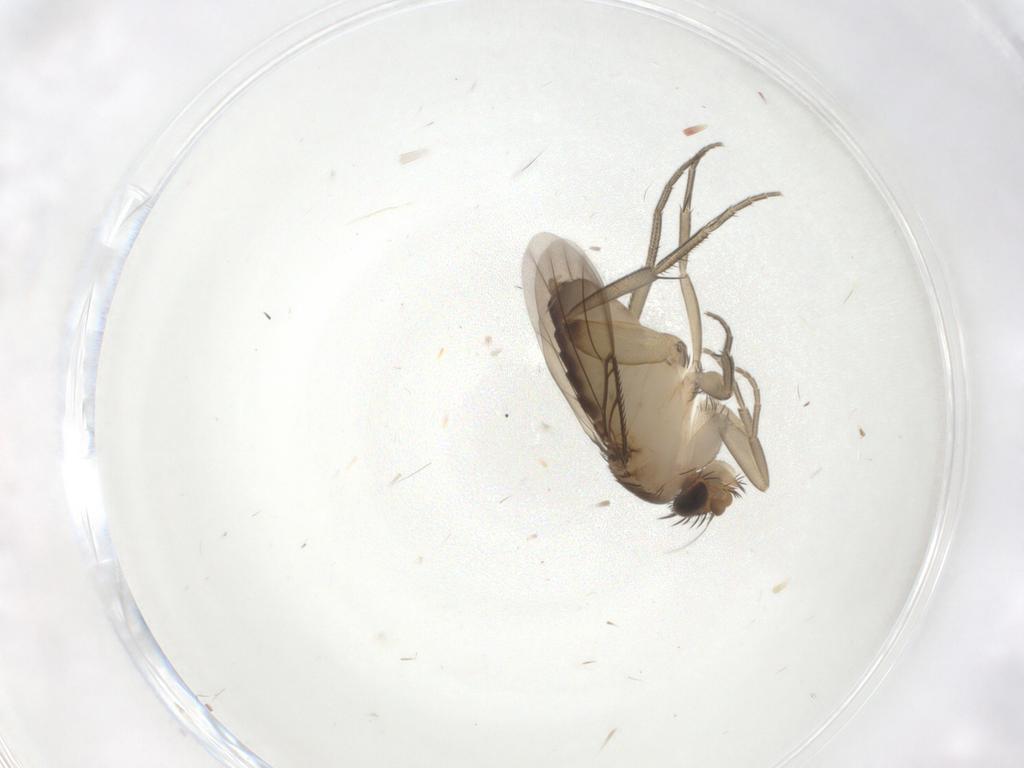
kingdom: Animalia
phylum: Arthropoda
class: Insecta
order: Diptera
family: Phoridae
